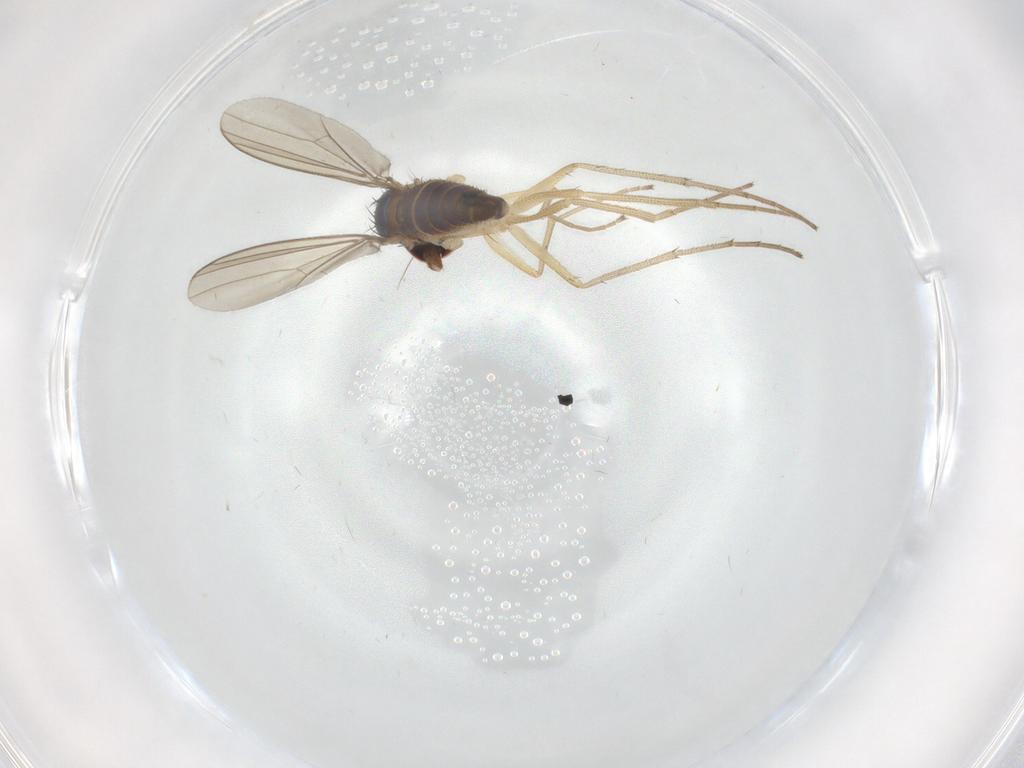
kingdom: Animalia
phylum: Arthropoda
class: Insecta
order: Diptera
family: Dolichopodidae
